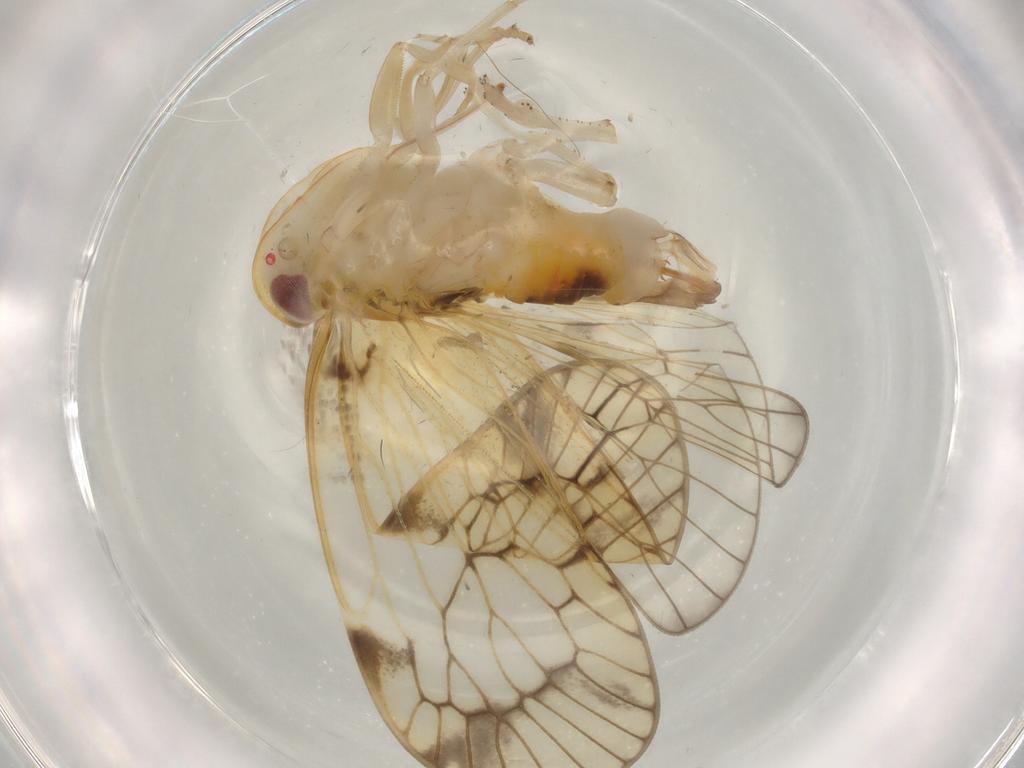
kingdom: Animalia
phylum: Arthropoda
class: Insecta
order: Hemiptera
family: Cixiidae
